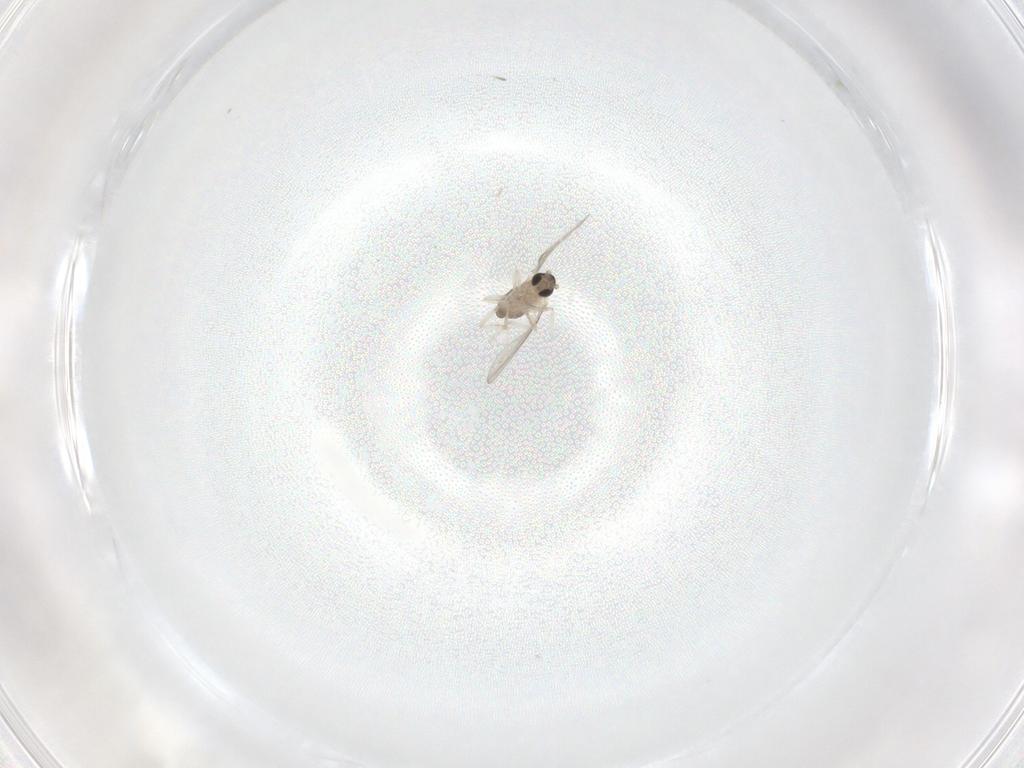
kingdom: Animalia
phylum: Arthropoda
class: Insecta
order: Diptera
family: Cecidomyiidae
